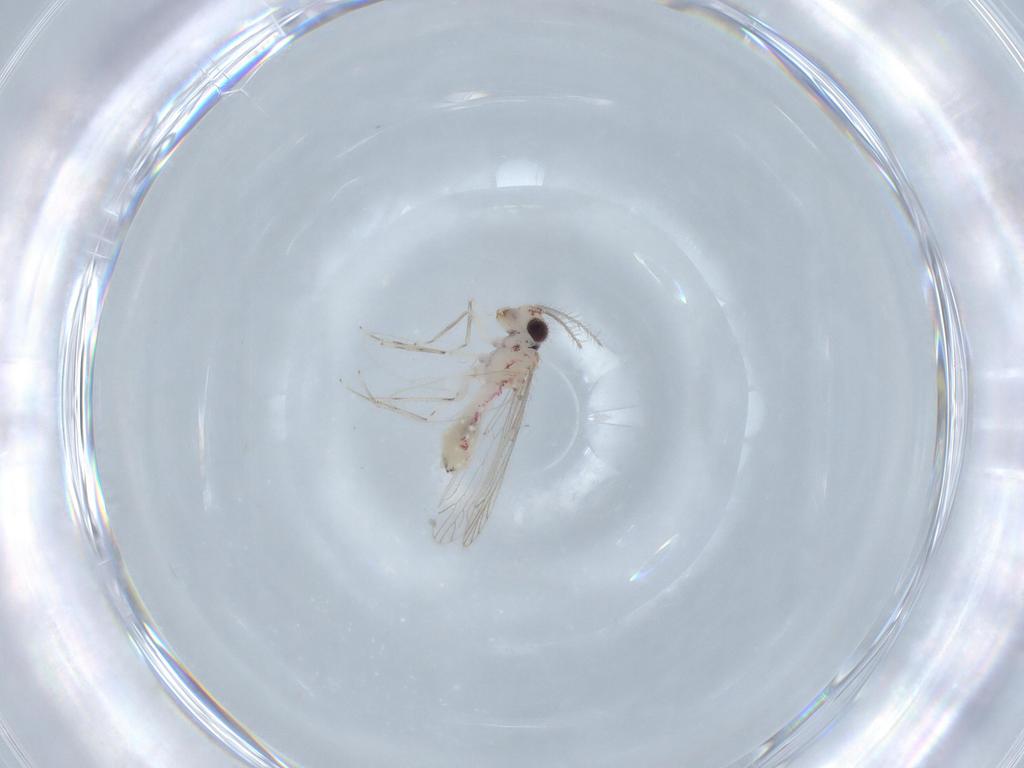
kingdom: Animalia
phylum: Arthropoda
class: Insecta
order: Psocodea
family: Caeciliusidae
